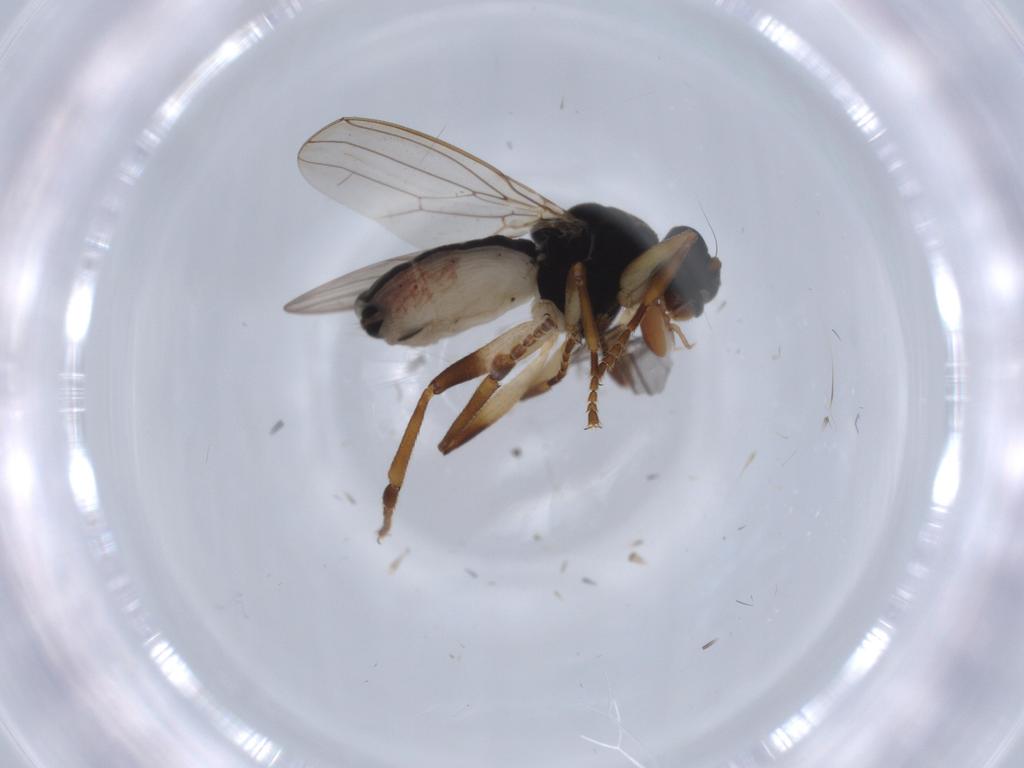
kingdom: Animalia
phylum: Arthropoda
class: Insecta
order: Diptera
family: Sphaeroceridae
